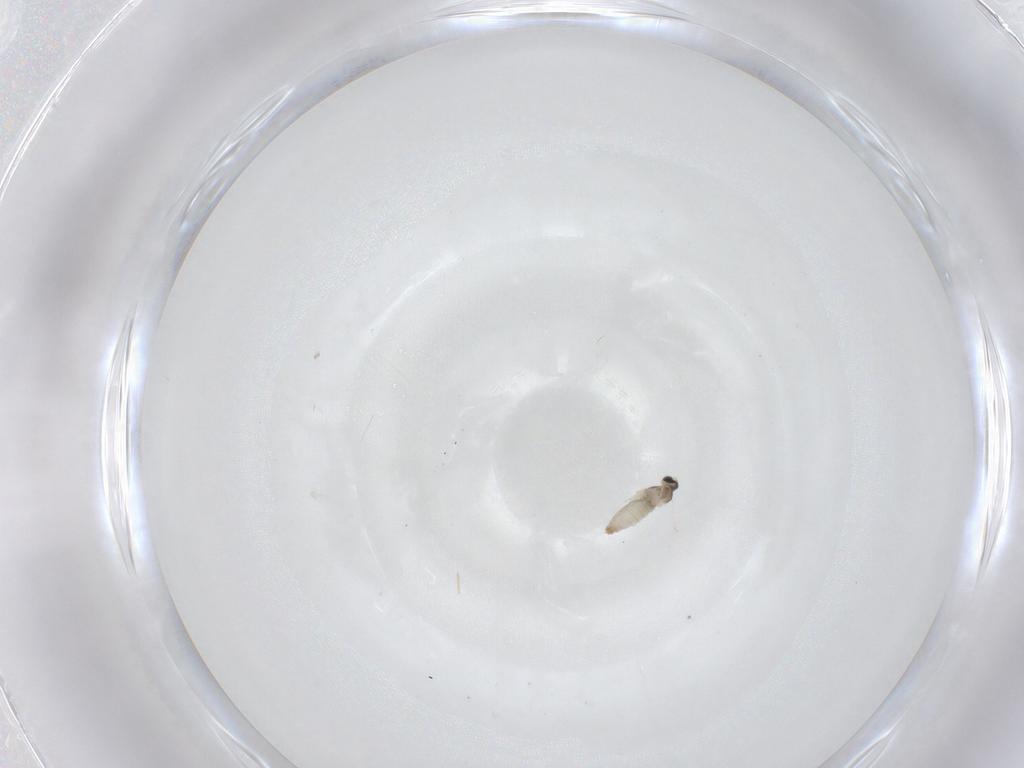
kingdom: Animalia
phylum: Arthropoda
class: Insecta
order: Diptera
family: Cecidomyiidae
